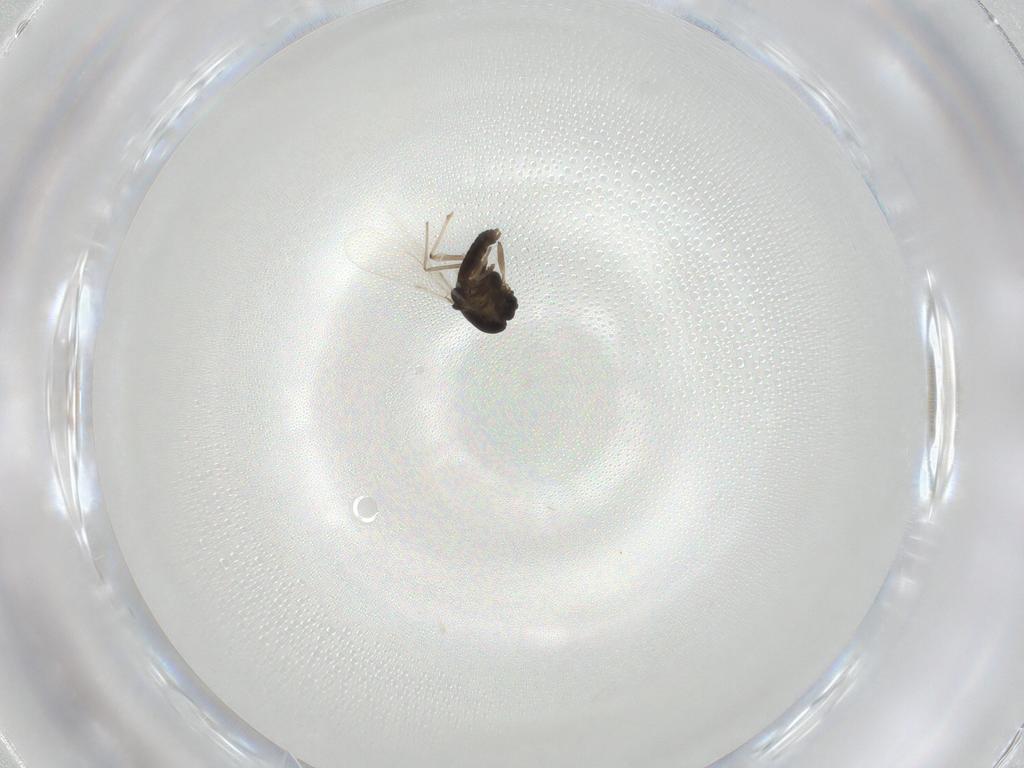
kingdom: Animalia
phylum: Arthropoda
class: Insecta
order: Diptera
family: Chironomidae
